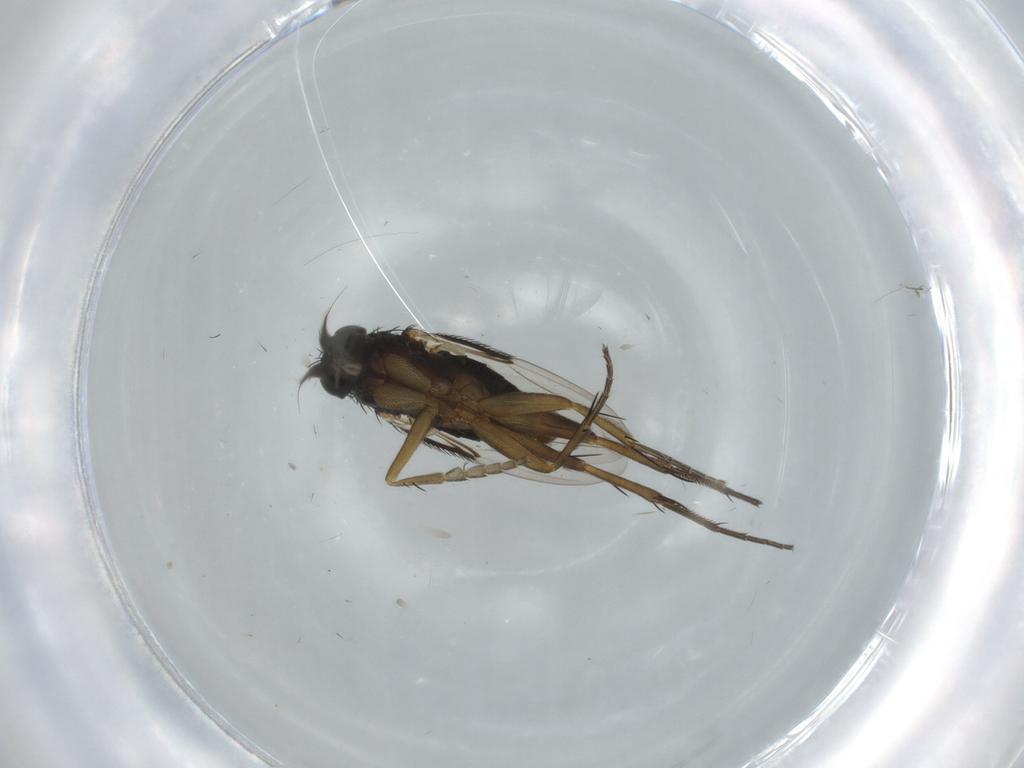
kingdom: Animalia
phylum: Arthropoda
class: Insecta
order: Diptera
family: Phoridae
